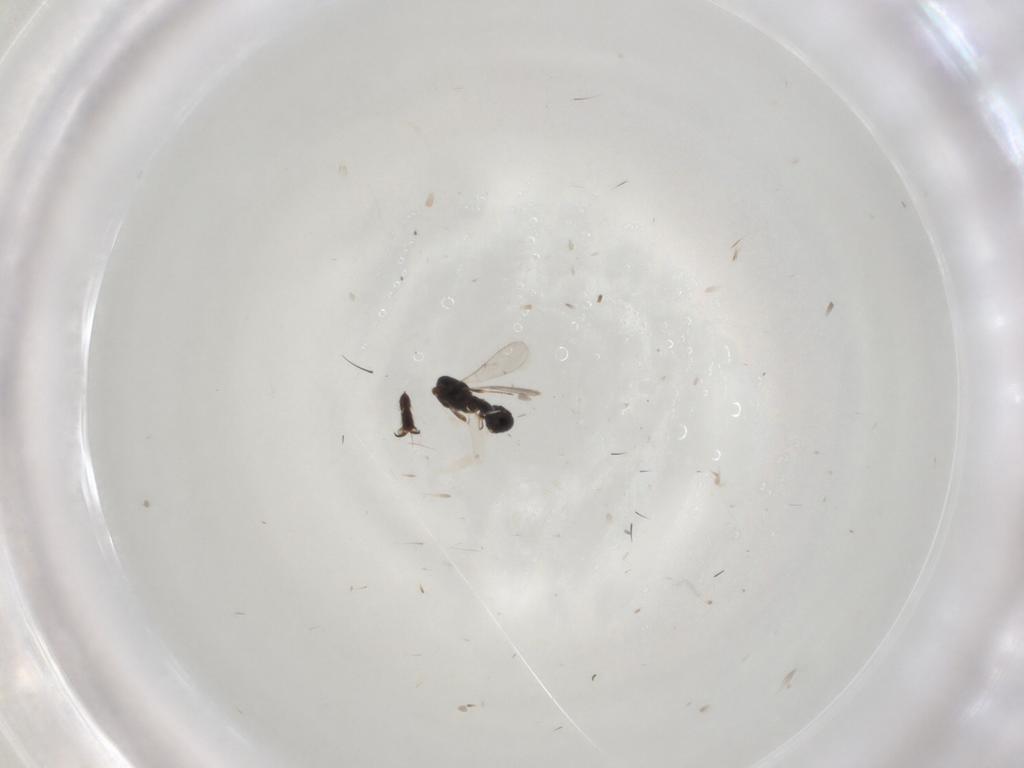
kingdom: Animalia
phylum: Arthropoda
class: Insecta
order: Hymenoptera
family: Scelionidae
